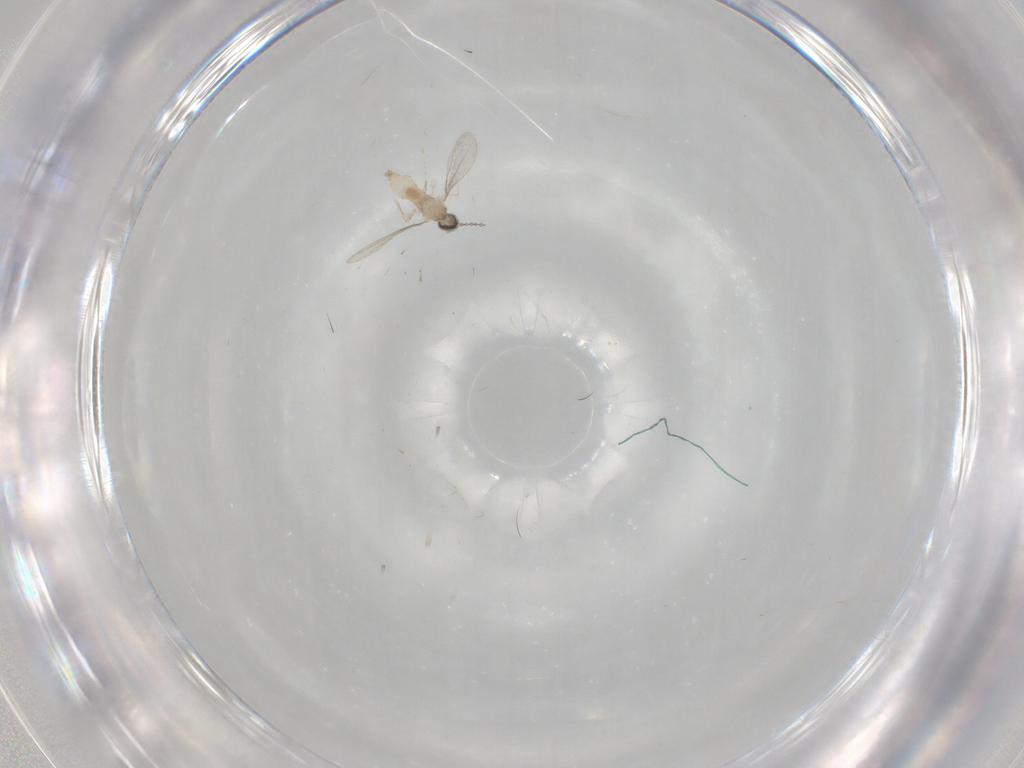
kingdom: Animalia
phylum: Arthropoda
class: Insecta
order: Diptera
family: Cecidomyiidae
